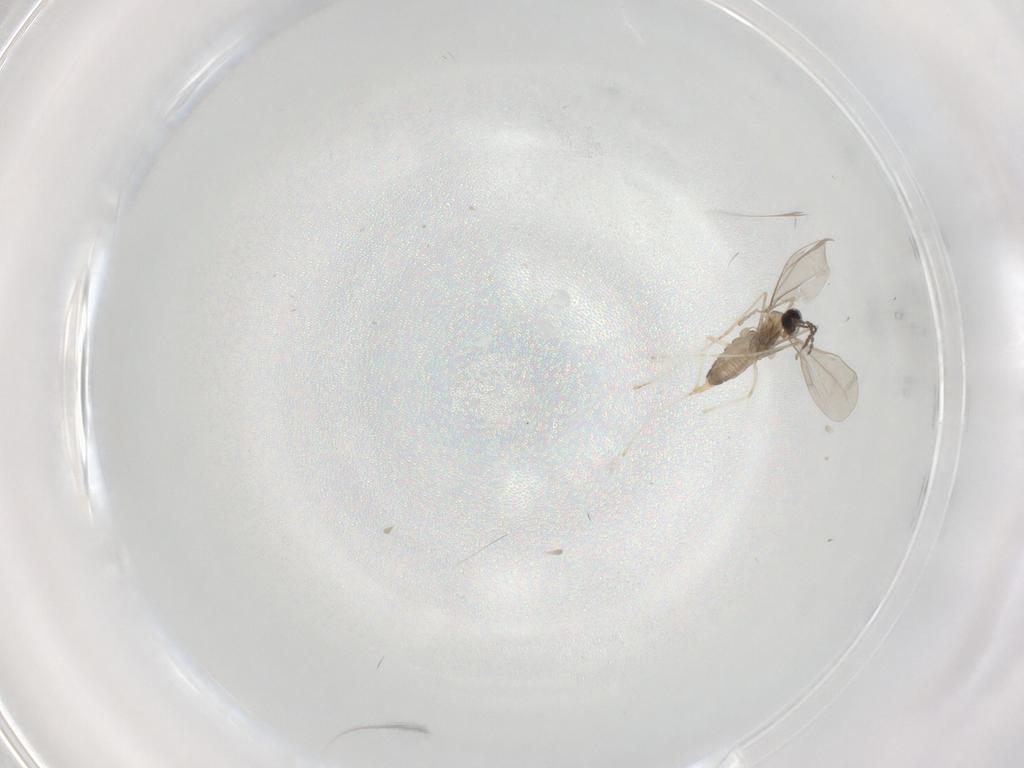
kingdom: Animalia
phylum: Arthropoda
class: Insecta
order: Diptera
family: Cecidomyiidae
